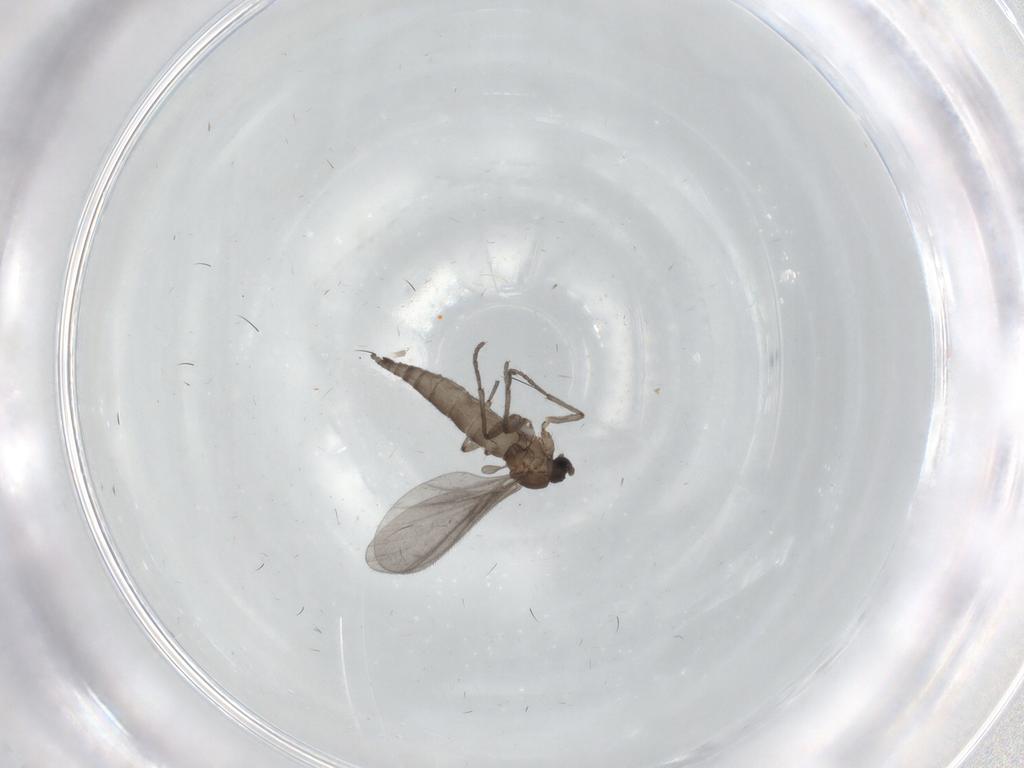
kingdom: Animalia
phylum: Arthropoda
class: Insecta
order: Diptera
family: Sciaridae
